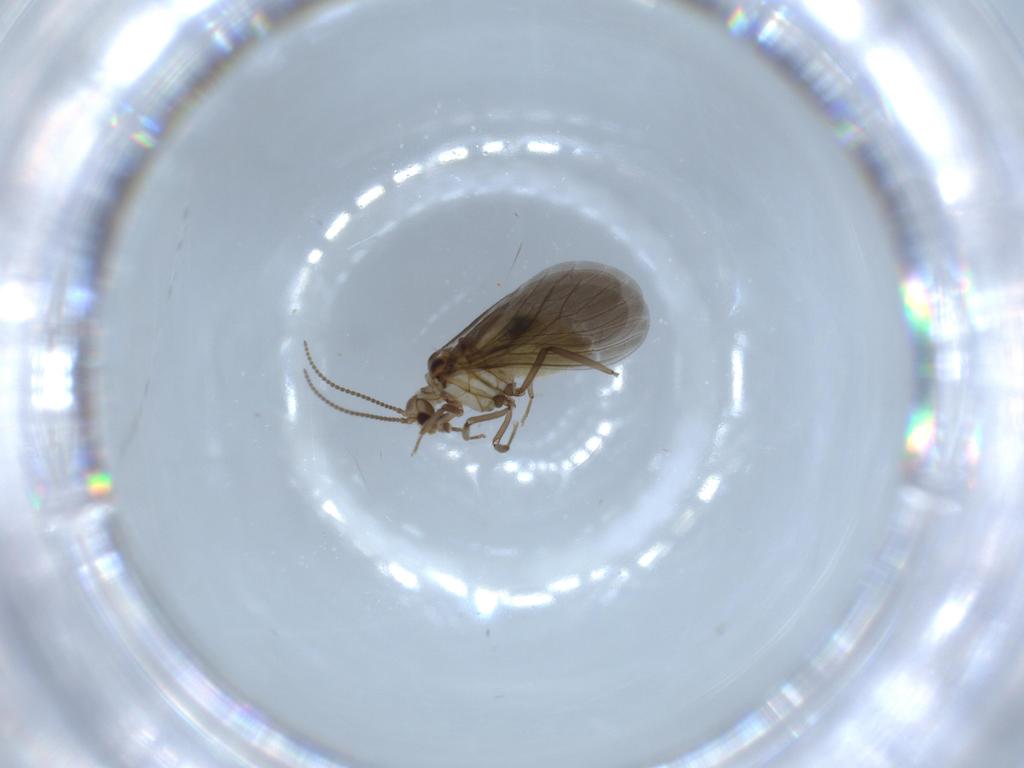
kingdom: Animalia
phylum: Arthropoda
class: Insecta
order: Neuroptera
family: Coniopterygidae
